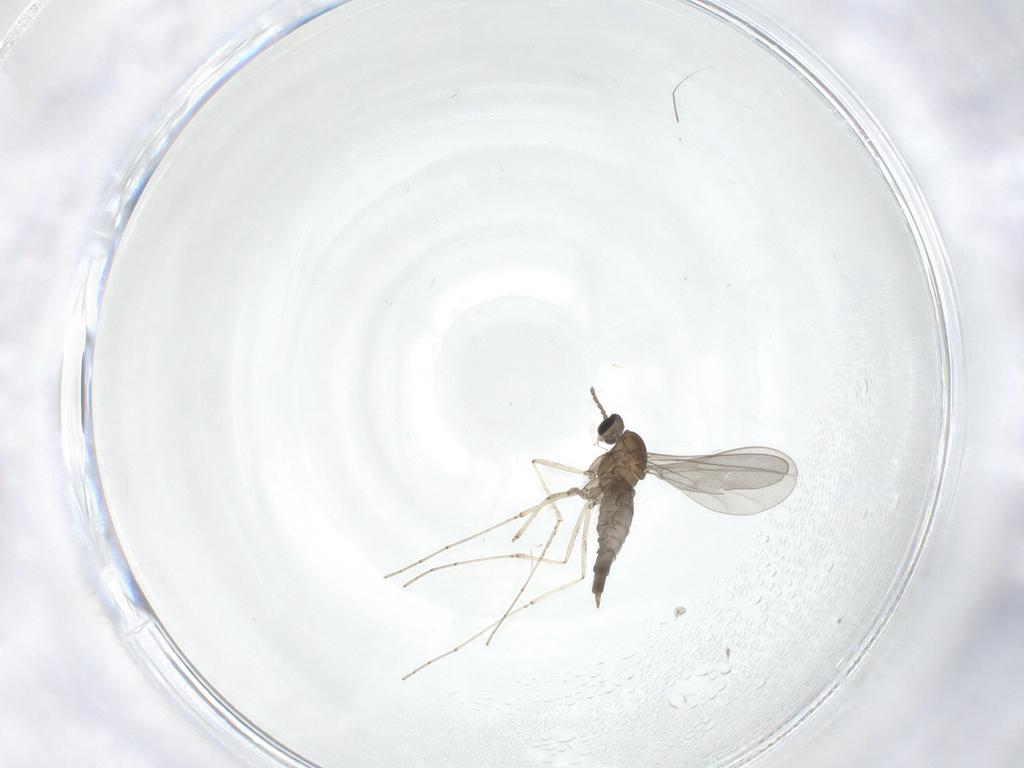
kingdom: Animalia
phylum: Arthropoda
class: Insecta
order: Diptera
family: Cecidomyiidae
